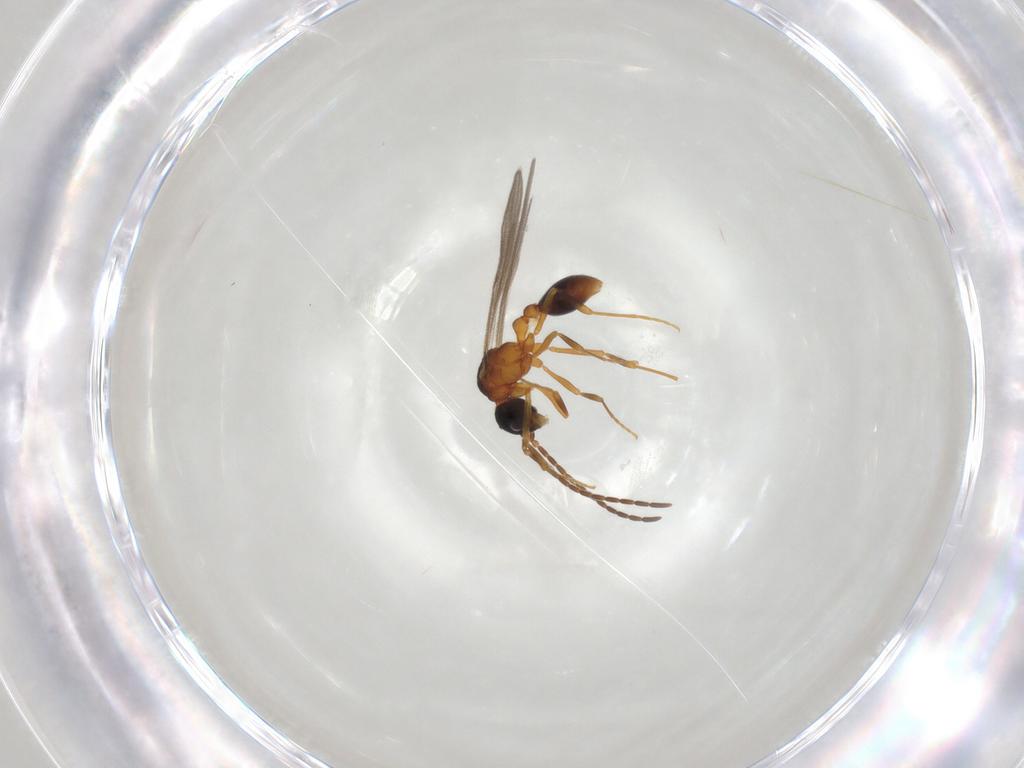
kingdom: Animalia
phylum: Arthropoda
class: Insecta
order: Hymenoptera
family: Formicidae
